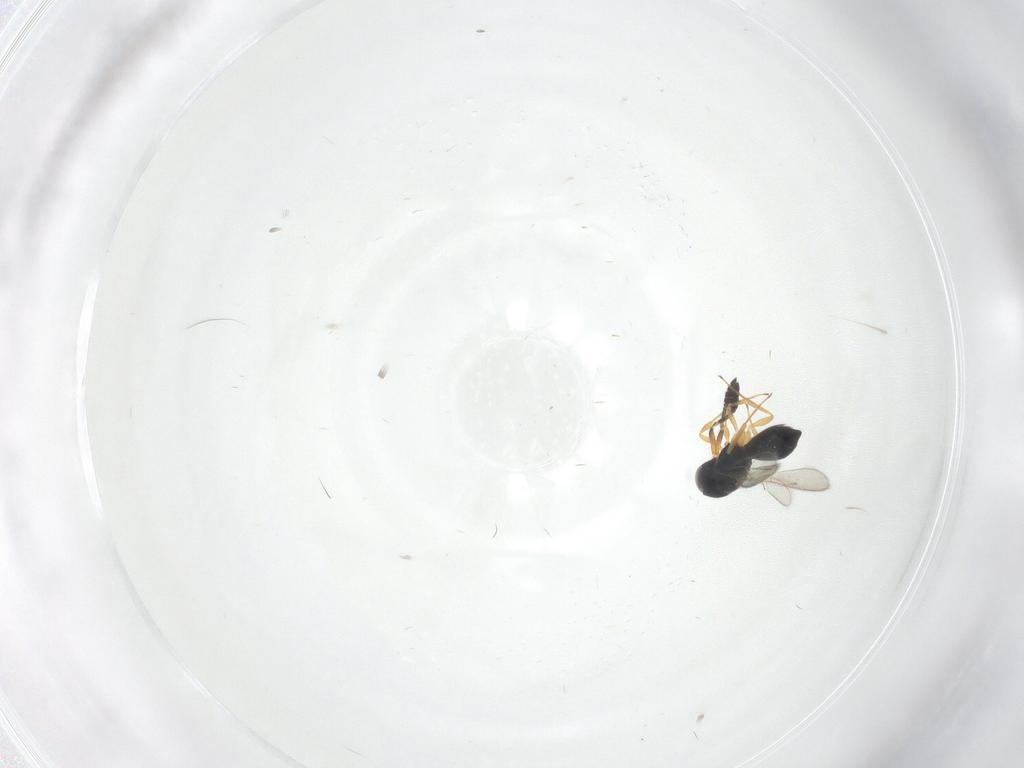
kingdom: Animalia
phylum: Arthropoda
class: Insecta
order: Hymenoptera
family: Scelionidae
